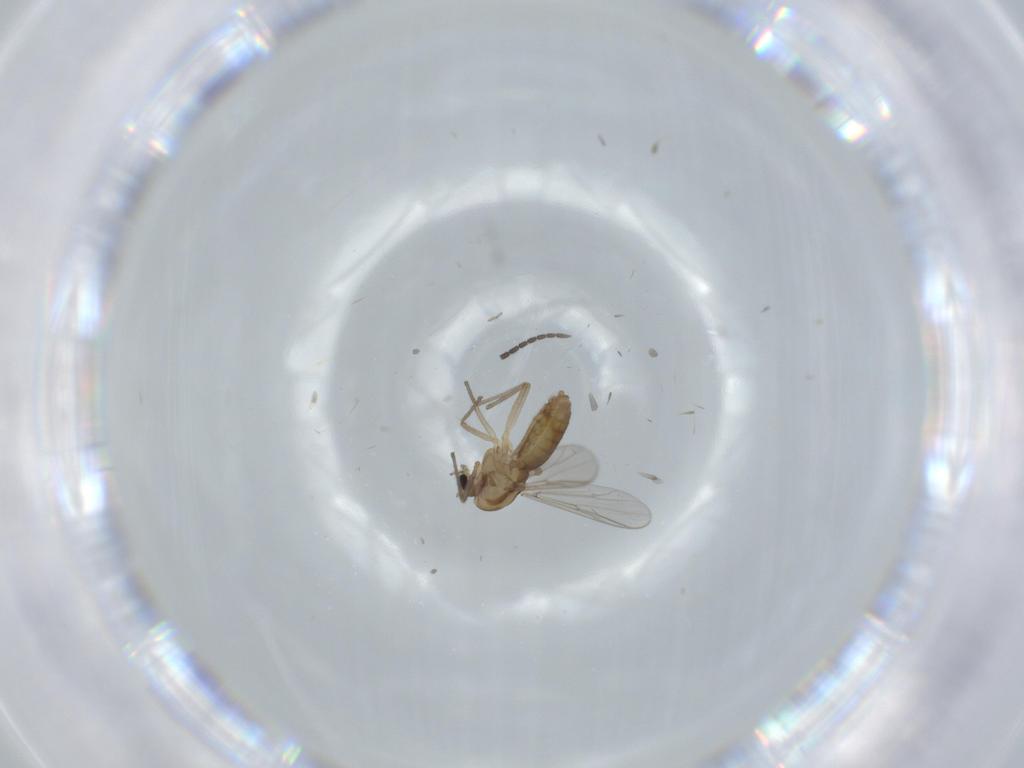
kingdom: Animalia
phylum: Arthropoda
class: Insecta
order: Diptera
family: Chironomidae
